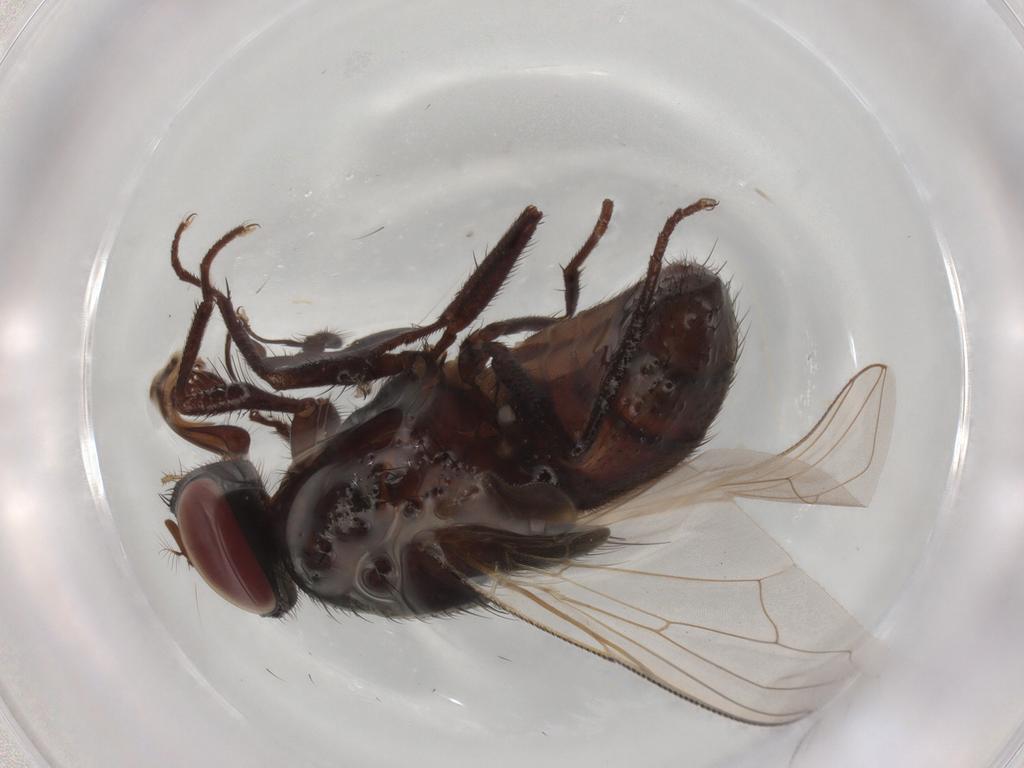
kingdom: Animalia
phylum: Arthropoda
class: Insecta
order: Diptera
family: Phoridae
